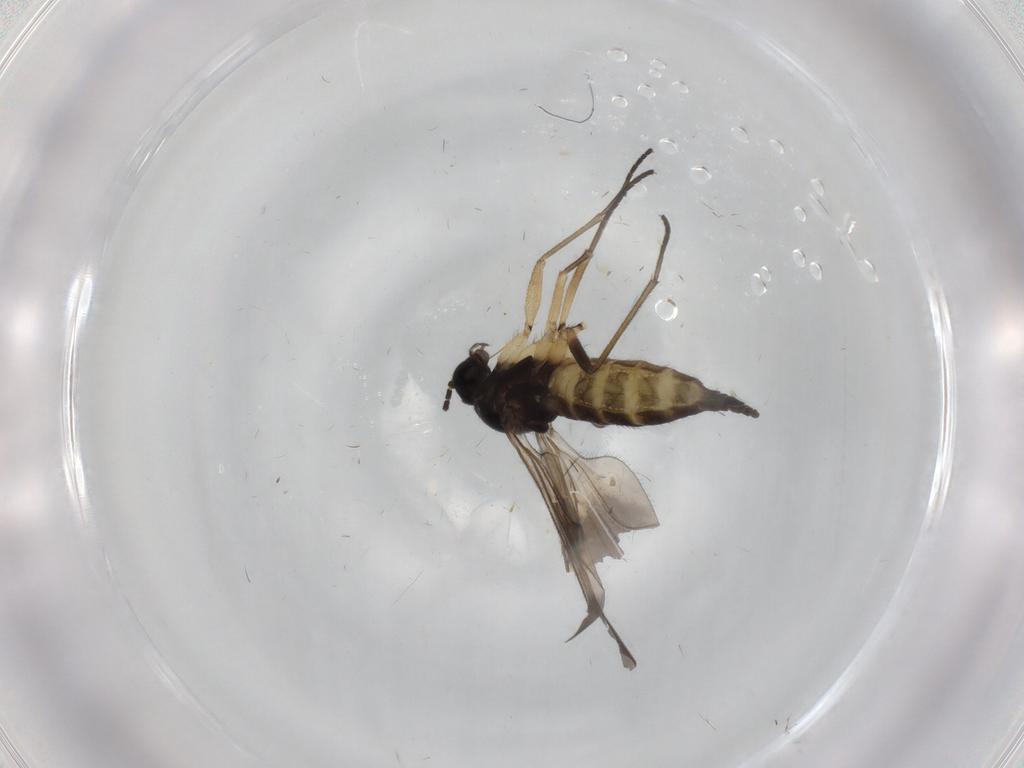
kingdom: Animalia
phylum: Arthropoda
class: Insecta
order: Diptera
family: Sciaridae
